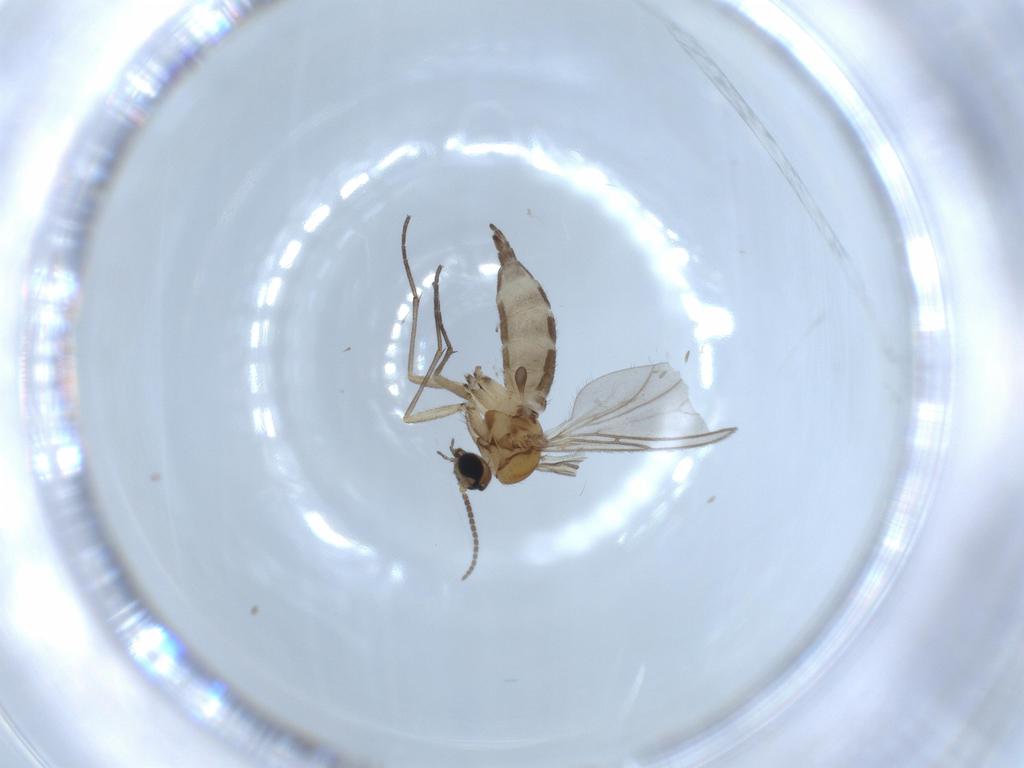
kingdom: Animalia
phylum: Arthropoda
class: Insecta
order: Diptera
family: Sciaridae
